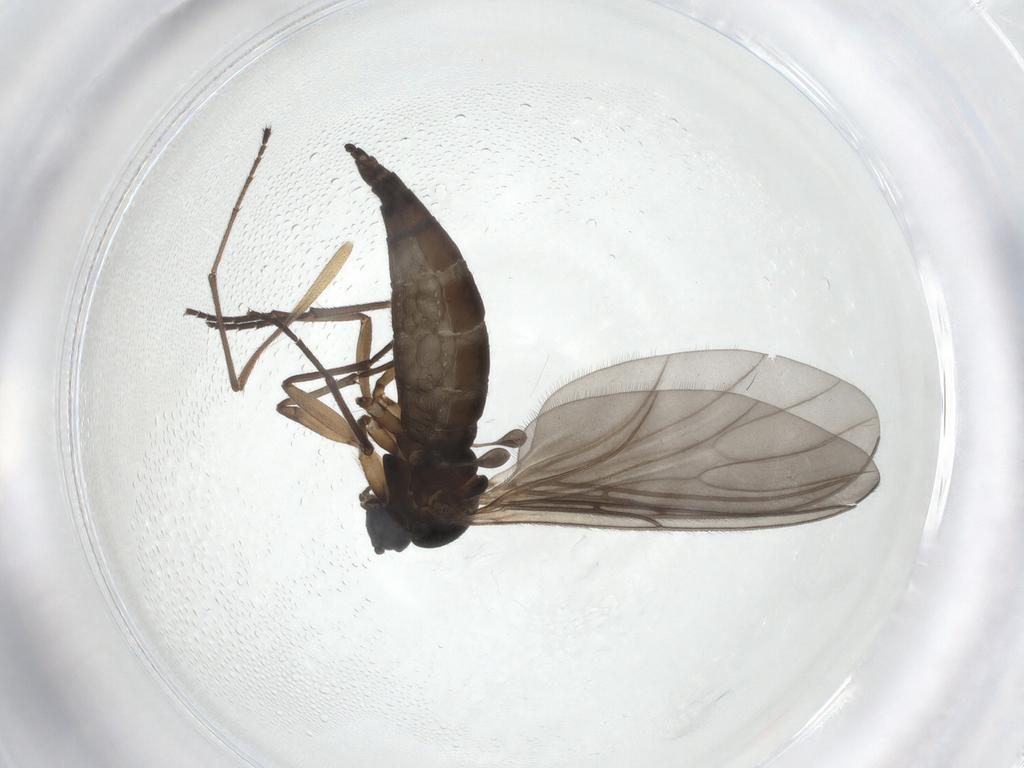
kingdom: Animalia
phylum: Arthropoda
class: Insecta
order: Diptera
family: Sciaridae
